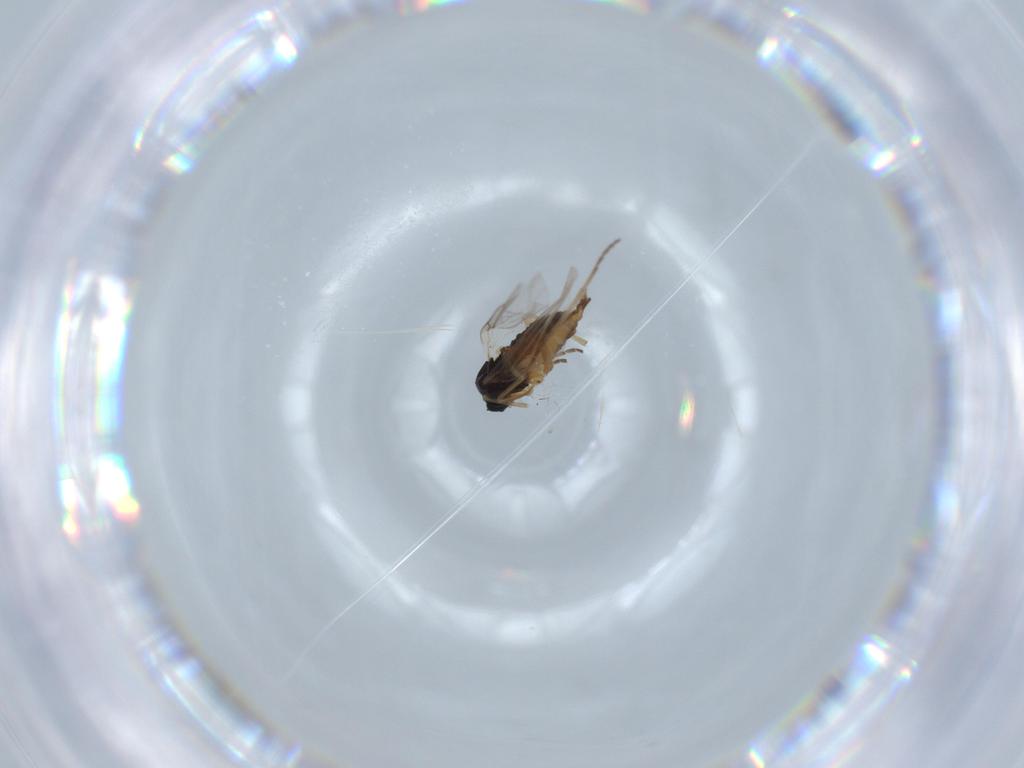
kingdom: Animalia
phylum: Arthropoda
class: Insecta
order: Diptera
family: Sciaridae
